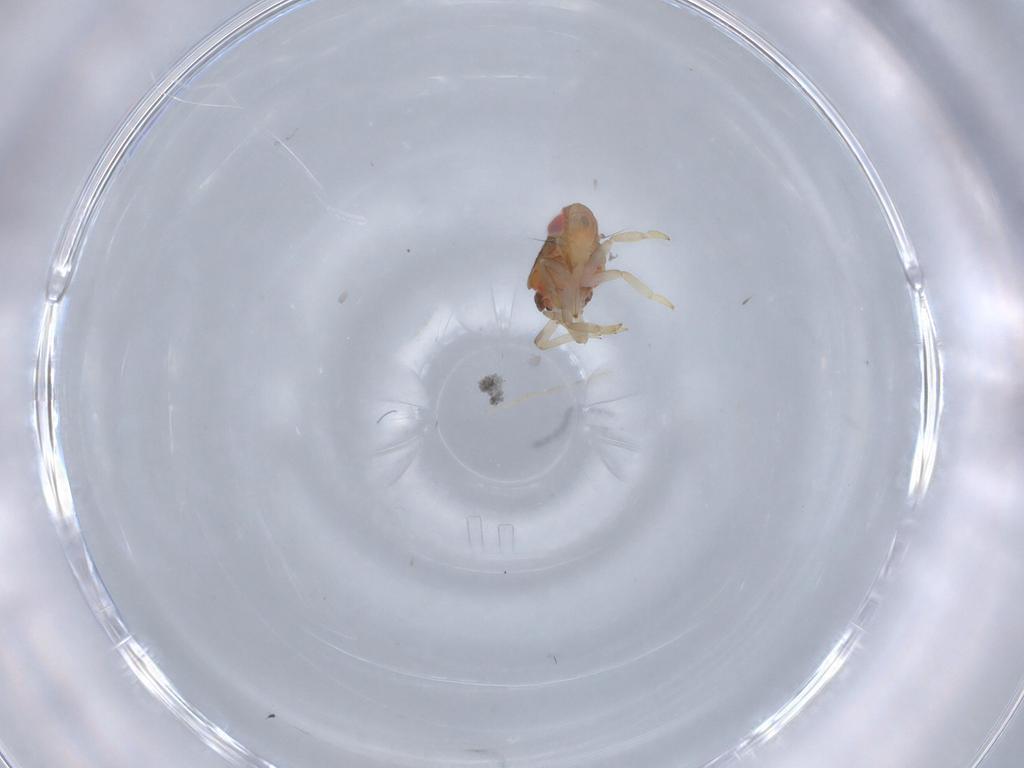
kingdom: Animalia
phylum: Arthropoda
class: Insecta
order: Hemiptera
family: Issidae
